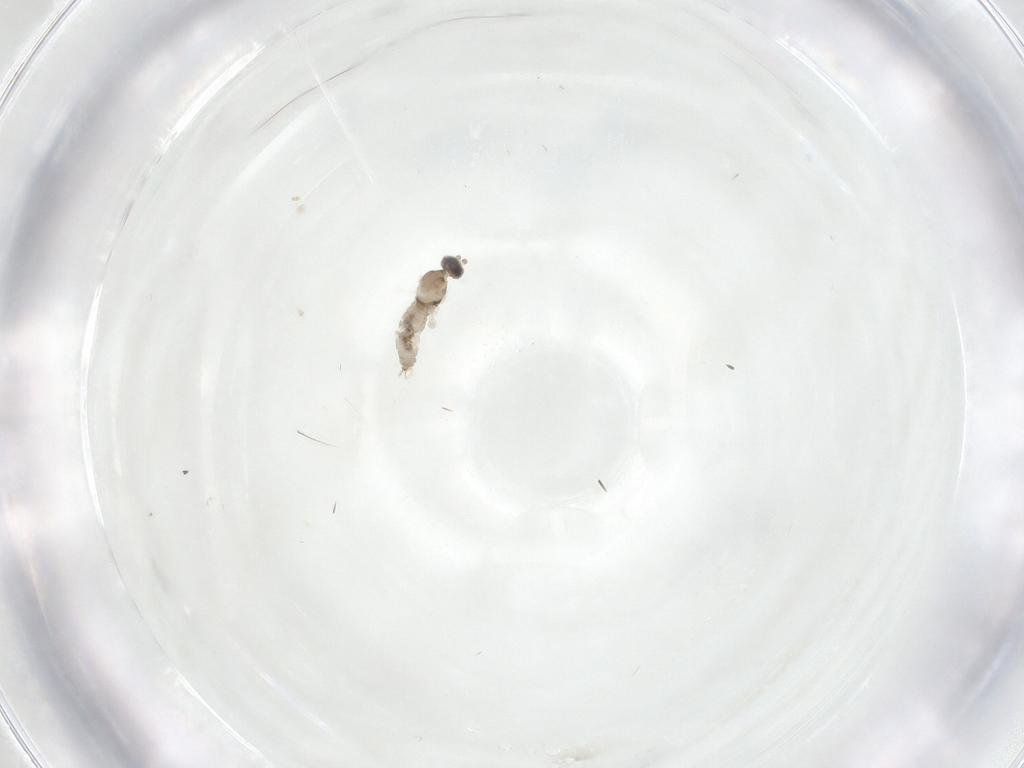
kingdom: Animalia
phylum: Arthropoda
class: Insecta
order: Diptera
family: Cecidomyiidae
